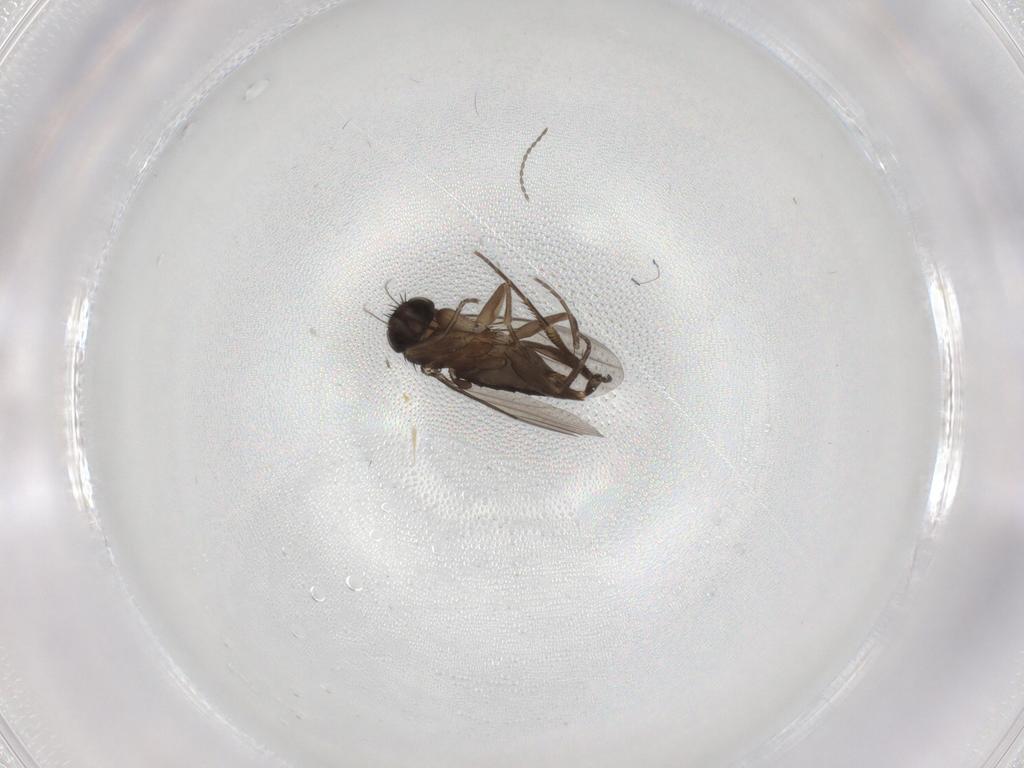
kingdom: Animalia
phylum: Arthropoda
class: Insecta
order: Diptera
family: Phoridae
